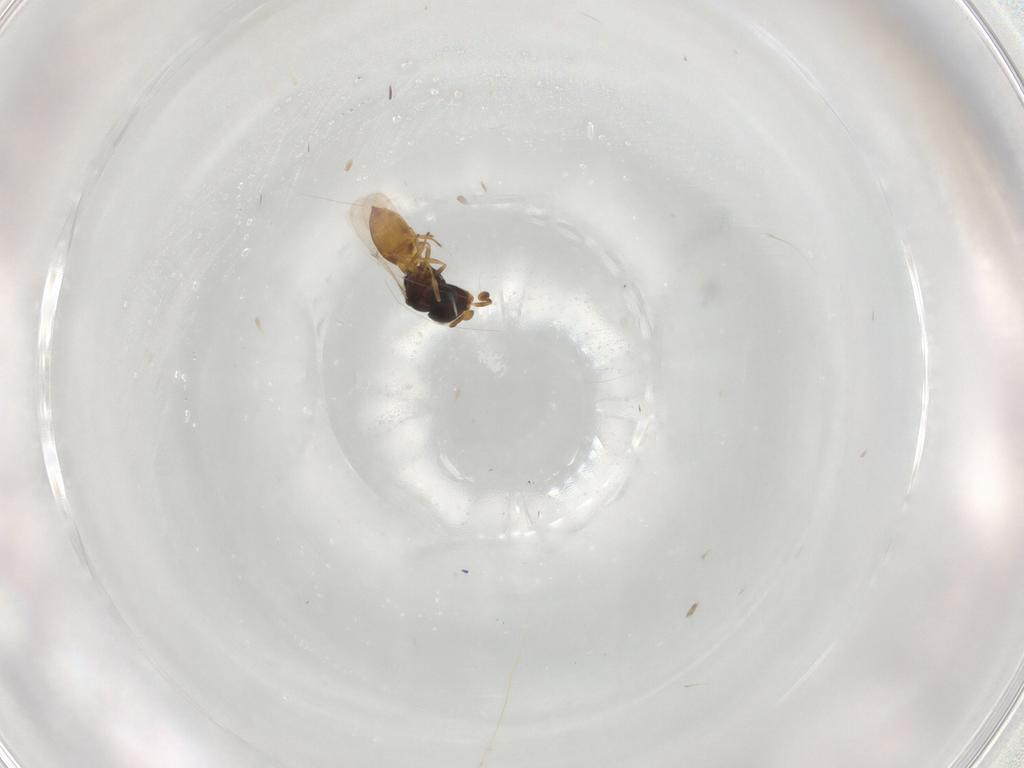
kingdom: Animalia
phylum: Arthropoda
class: Insecta
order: Hymenoptera
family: Scelionidae
